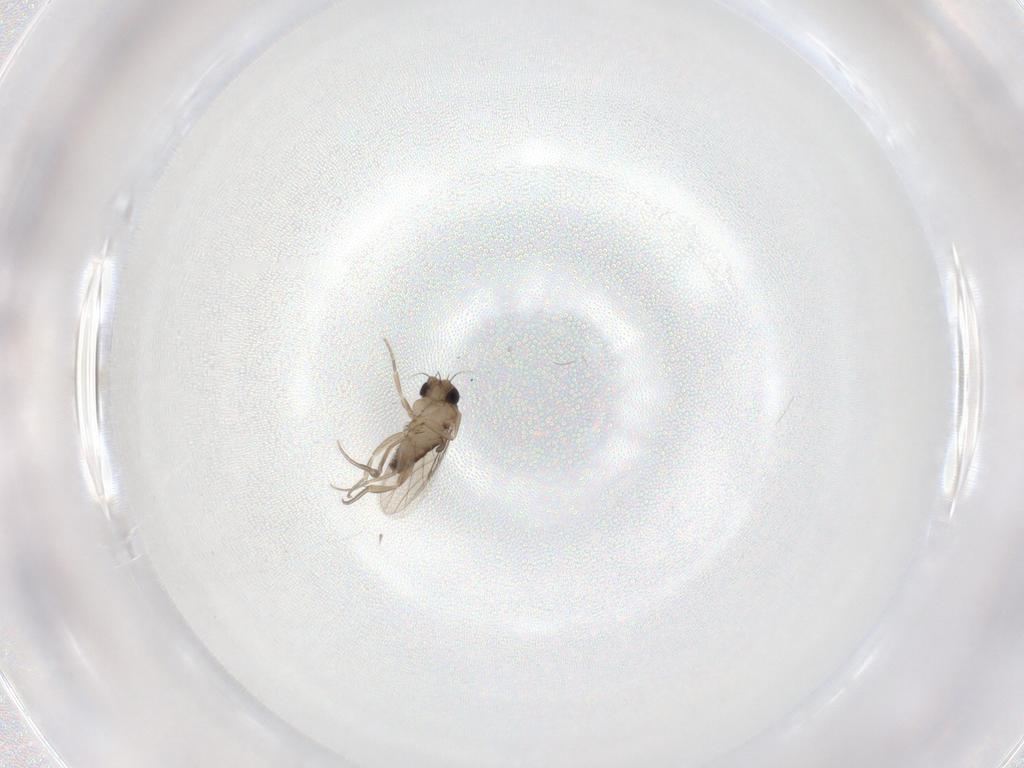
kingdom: Animalia
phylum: Arthropoda
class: Insecta
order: Diptera
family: Phoridae
